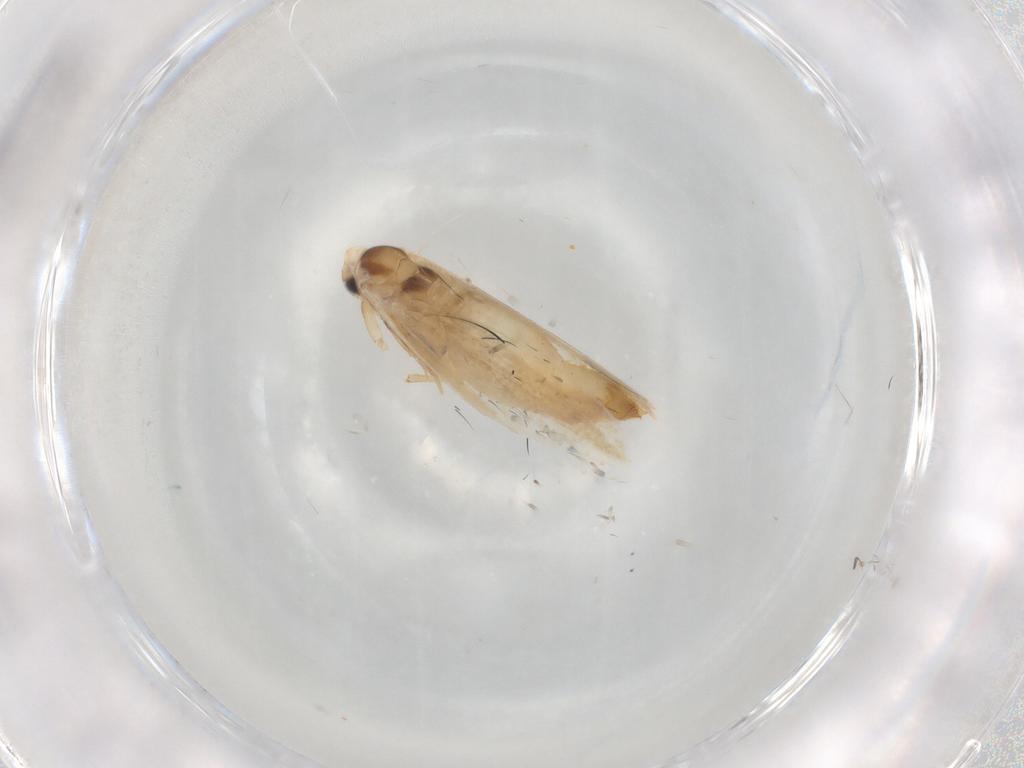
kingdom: Animalia
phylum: Arthropoda
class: Insecta
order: Lepidoptera
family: Bucculatricidae
